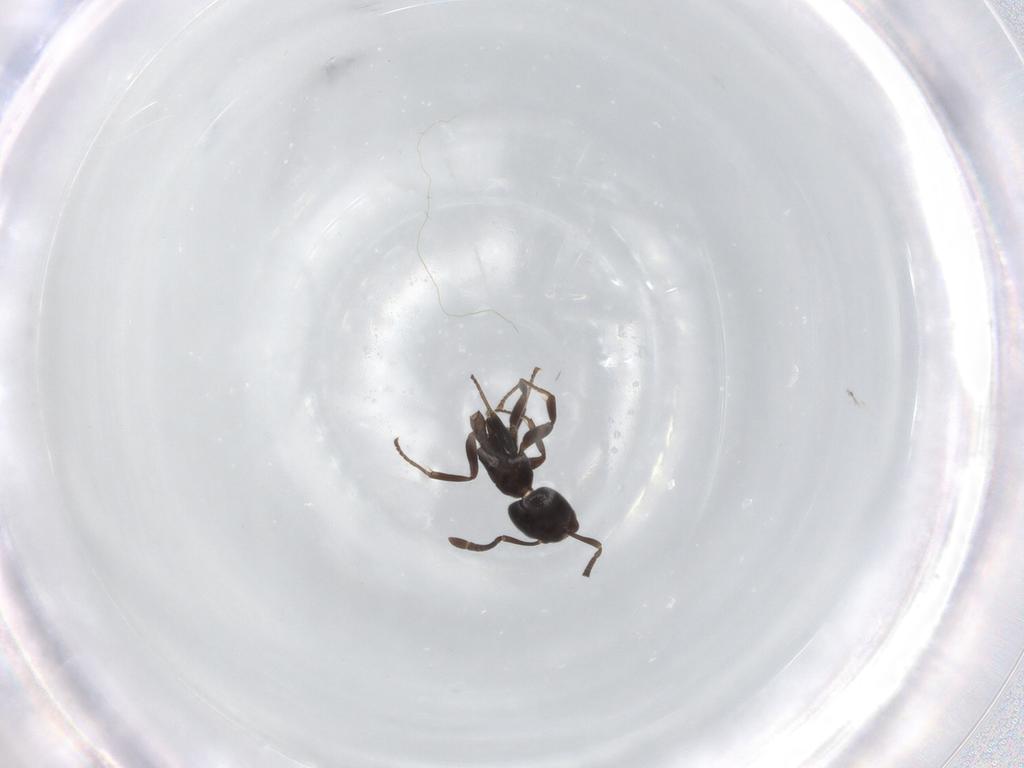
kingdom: Animalia
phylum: Arthropoda
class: Insecta
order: Hymenoptera
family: Formicidae
